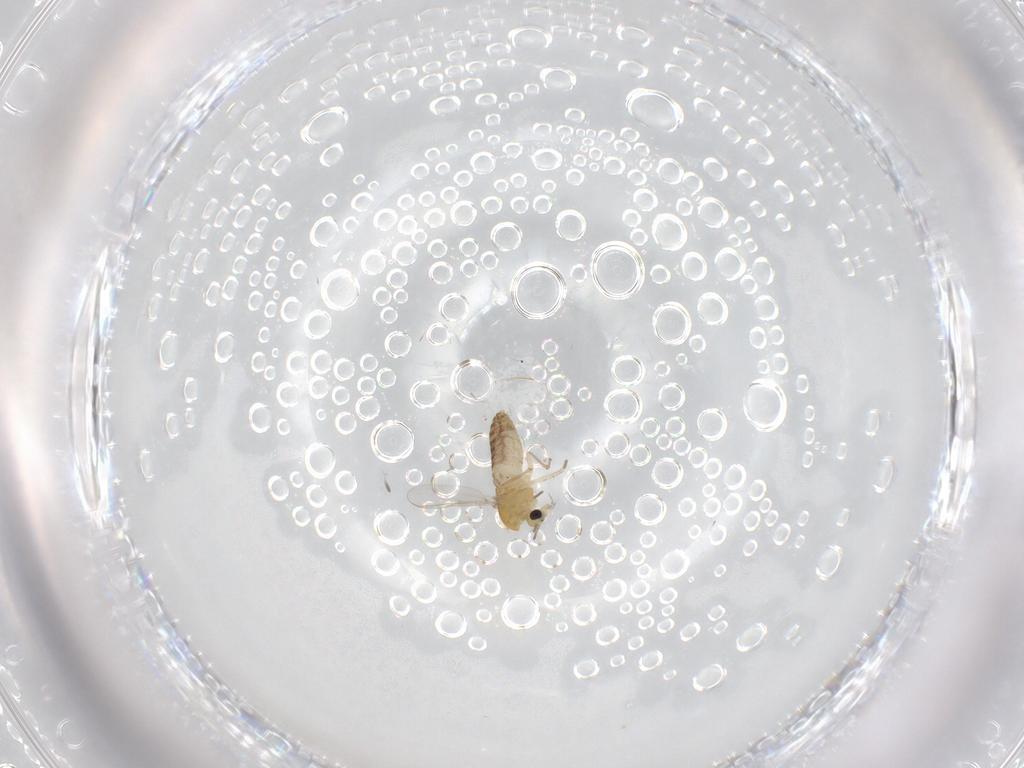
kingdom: Animalia
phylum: Arthropoda
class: Insecta
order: Diptera
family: Chironomidae
